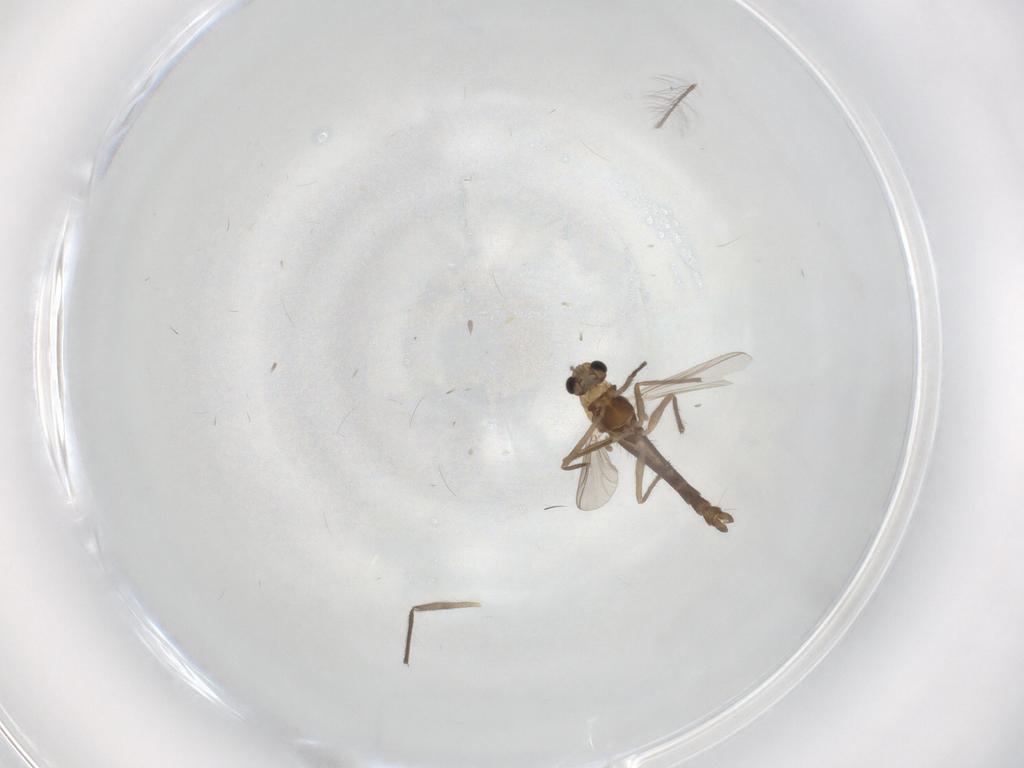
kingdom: Animalia
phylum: Arthropoda
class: Insecta
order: Diptera
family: Chironomidae
